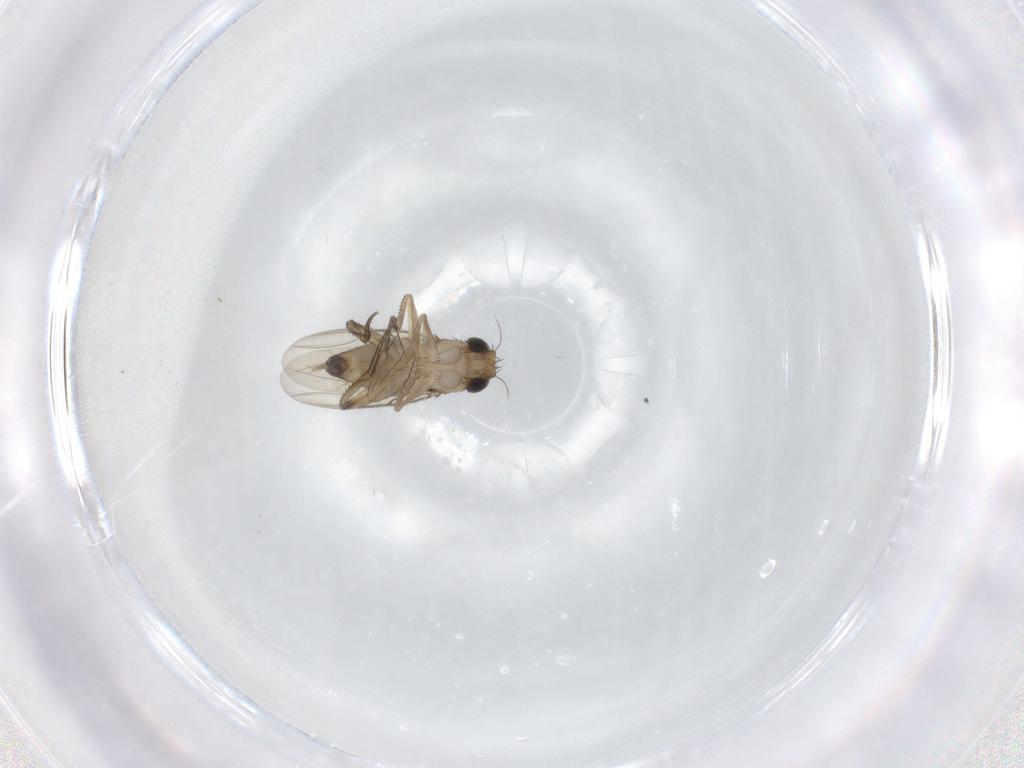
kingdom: Animalia
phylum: Arthropoda
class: Insecta
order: Diptera
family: Phoridae
